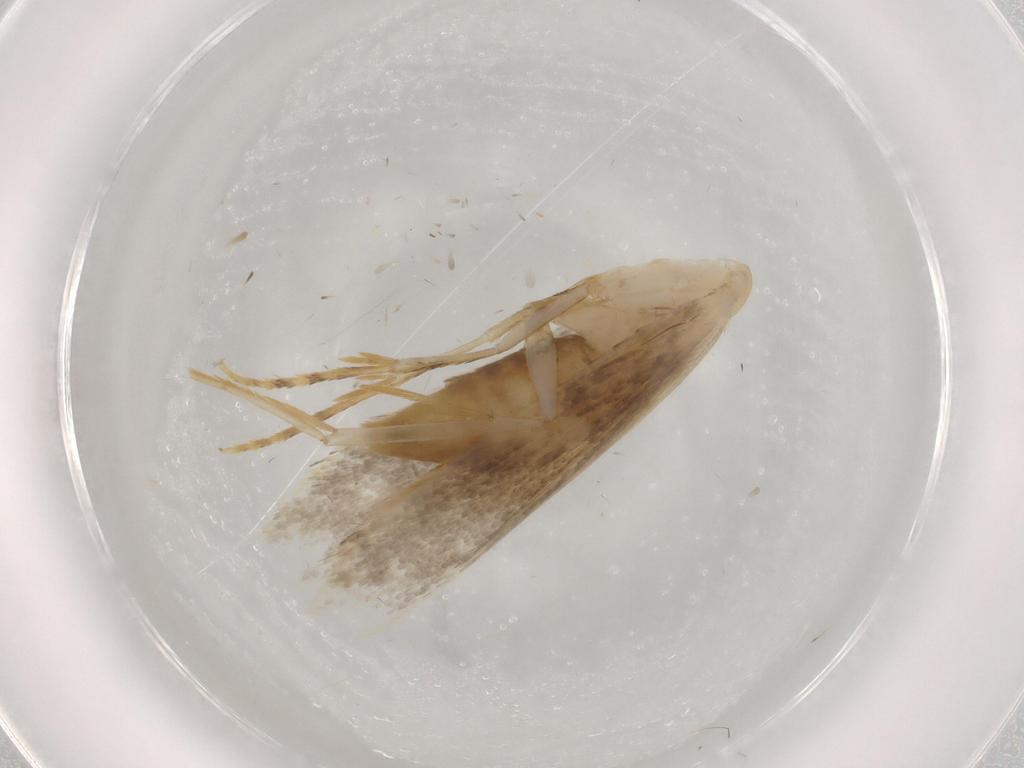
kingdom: Animalia
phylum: Arthropoda
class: Insecta
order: Lepidoptera
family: Tineidae
